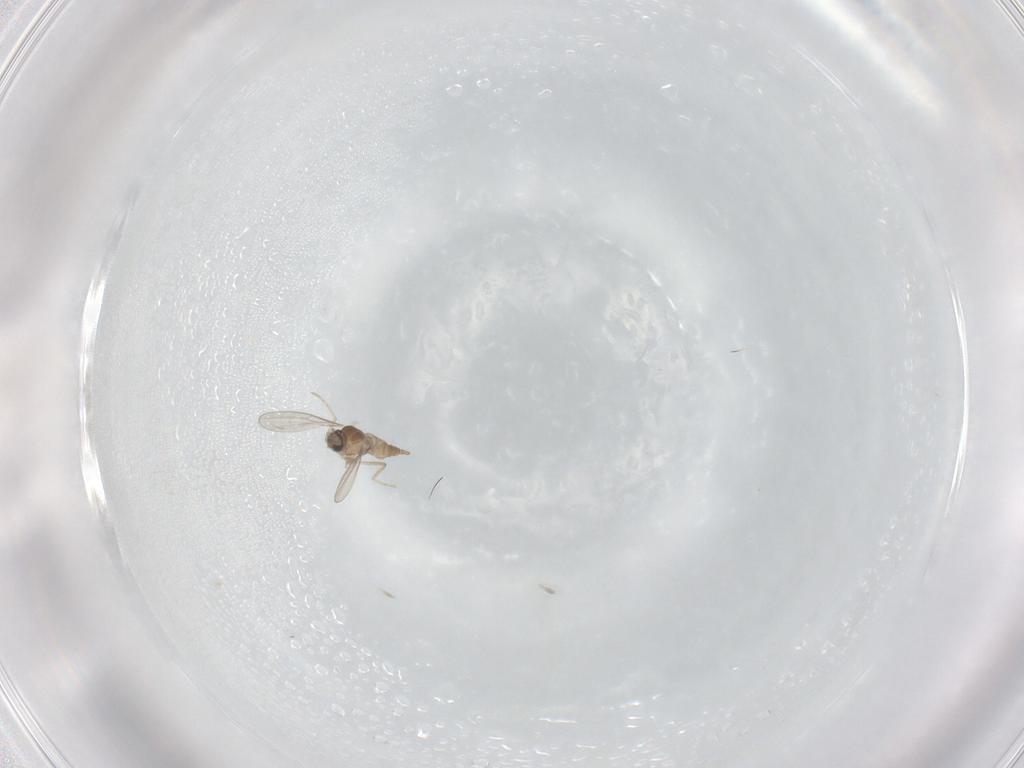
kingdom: Animalia
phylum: Arthropoda
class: Insecta
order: Diptera
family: Cecidomyiidae
